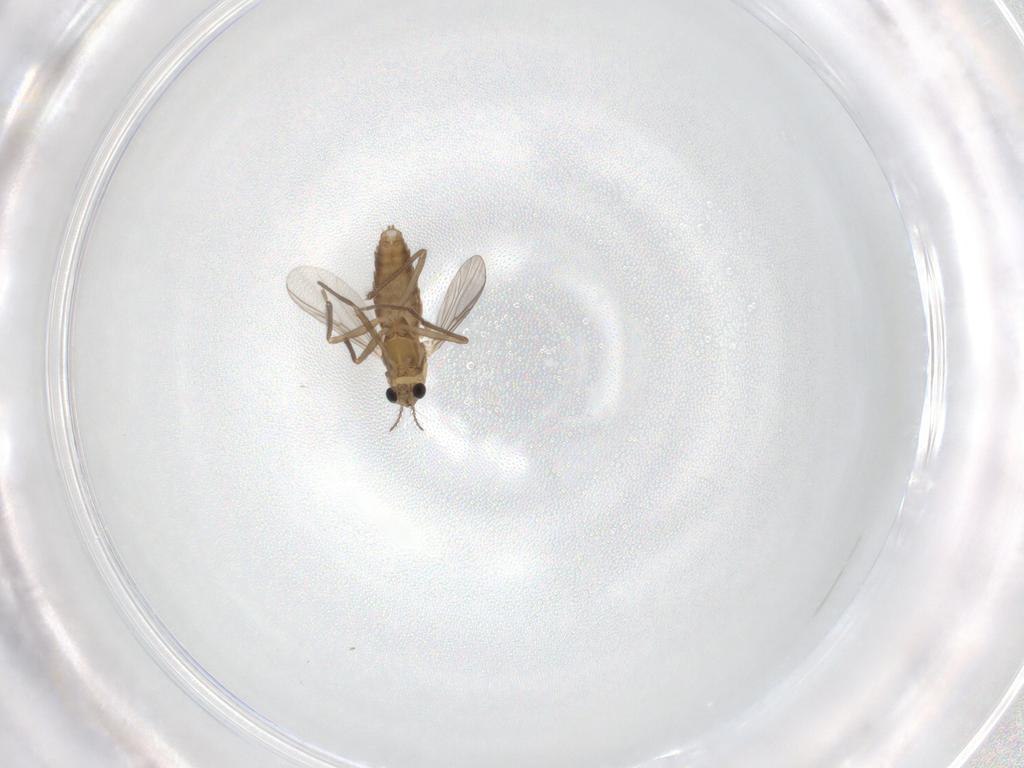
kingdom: Animalia
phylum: Arthropoda
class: Insecta
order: Diptera
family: Chironomidae
